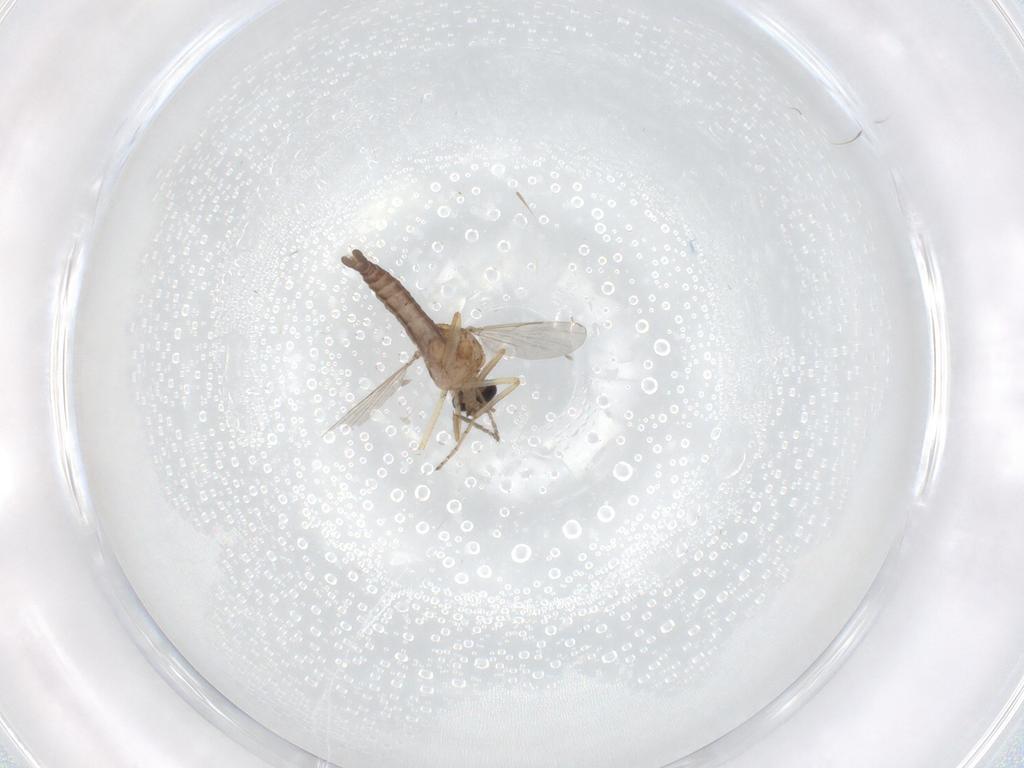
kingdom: Animalia
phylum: Arthropoda
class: Insecta
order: Diptera
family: Ceratopogonidae
